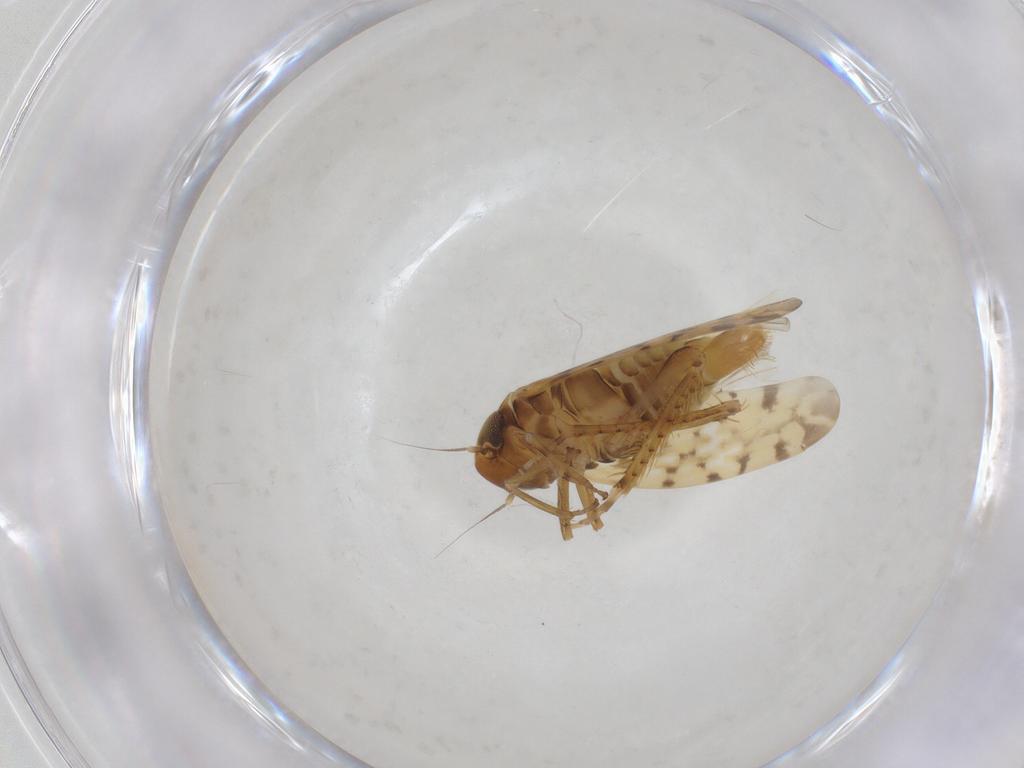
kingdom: Animalia
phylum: Arthropoda
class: Insecta
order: Hemiptera
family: Cicadellidae
